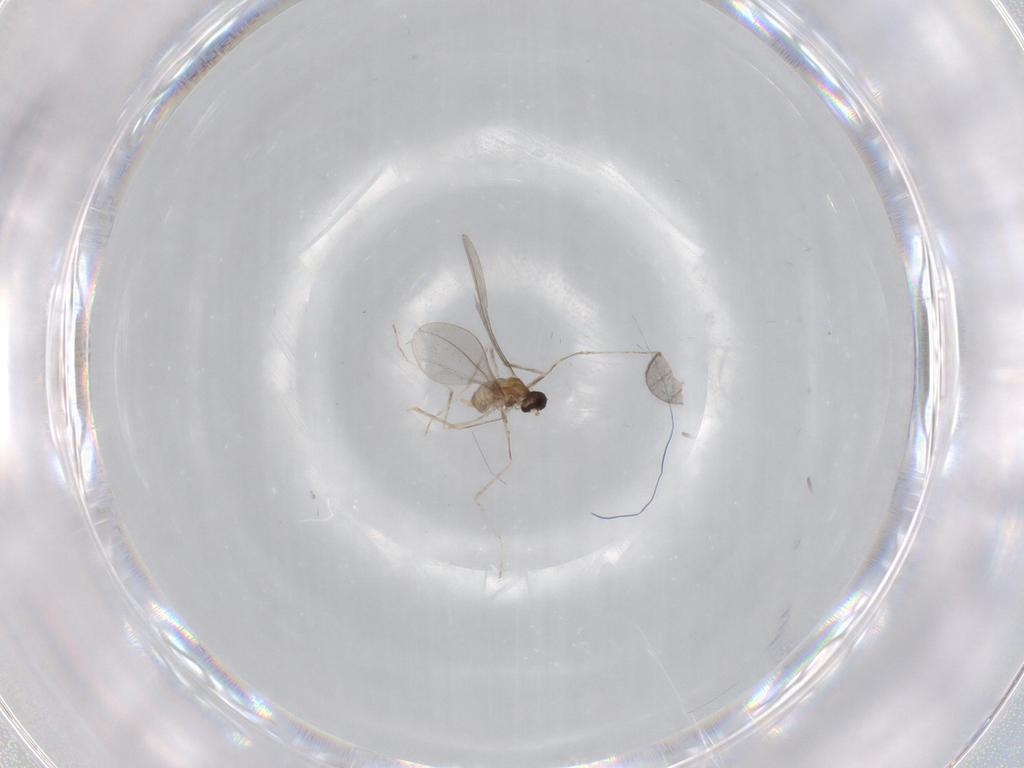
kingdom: Animalia
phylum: Arthropoda
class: Insecta
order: Diptera
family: Cecidomyiidae
